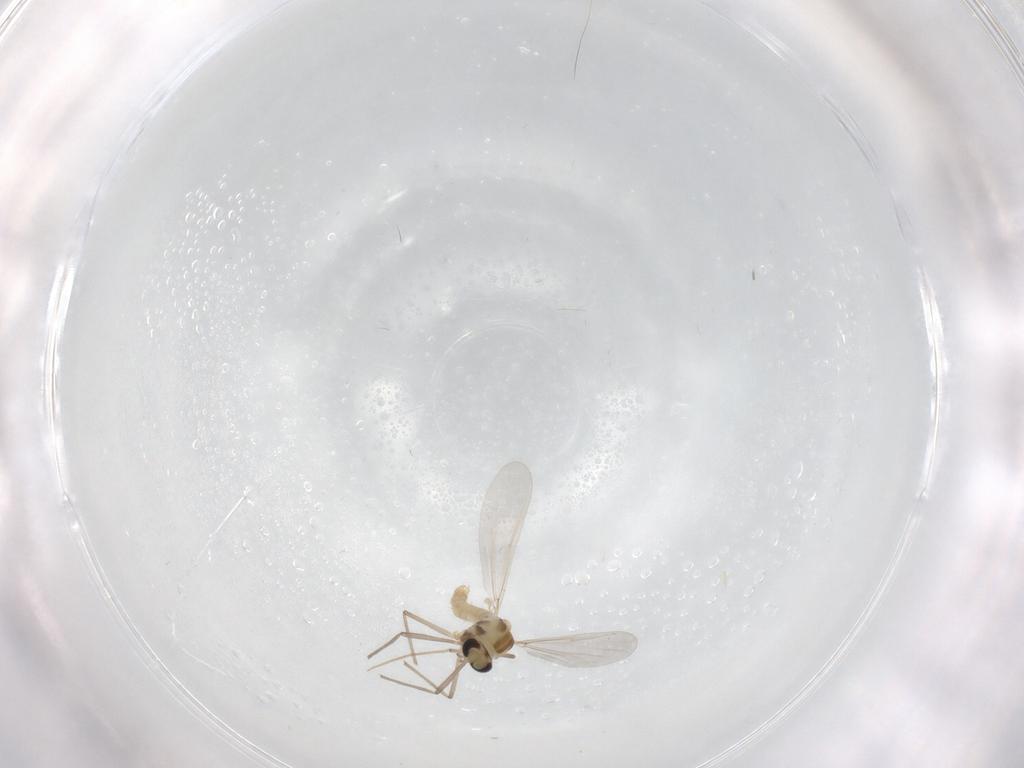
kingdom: Animalia
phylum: Arthropoda
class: Insecta
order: Diptera
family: Chironomidae
